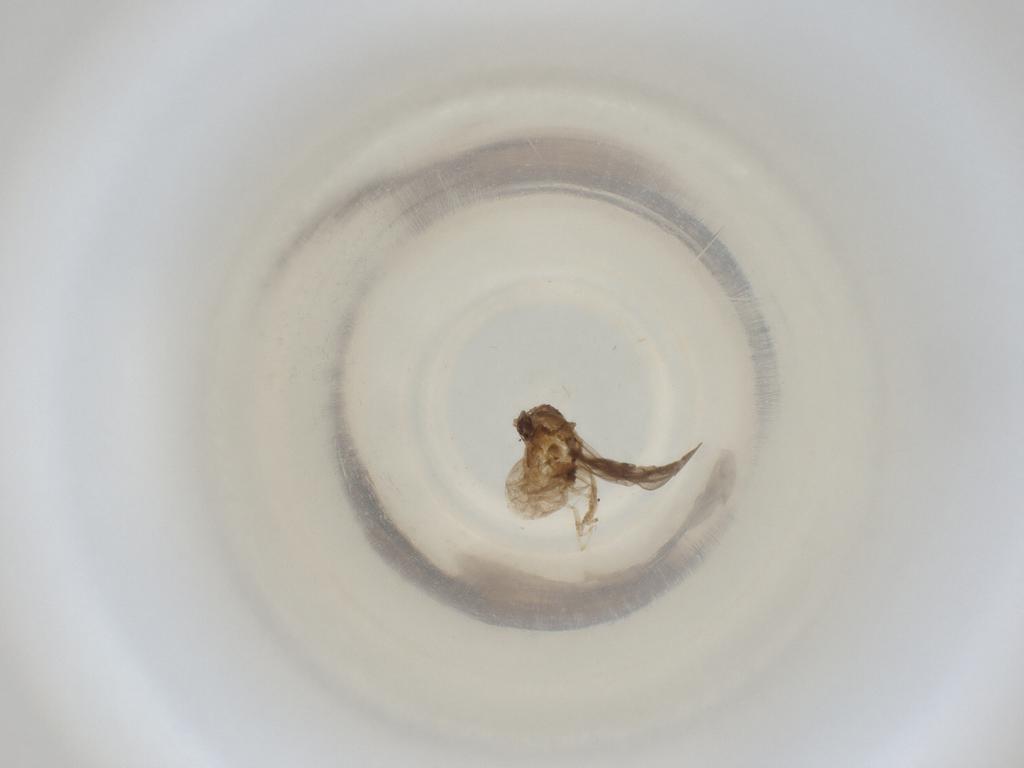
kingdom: Animalia
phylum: Arthropoda
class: Insecta
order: Diptera
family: Cecidomyiidae
